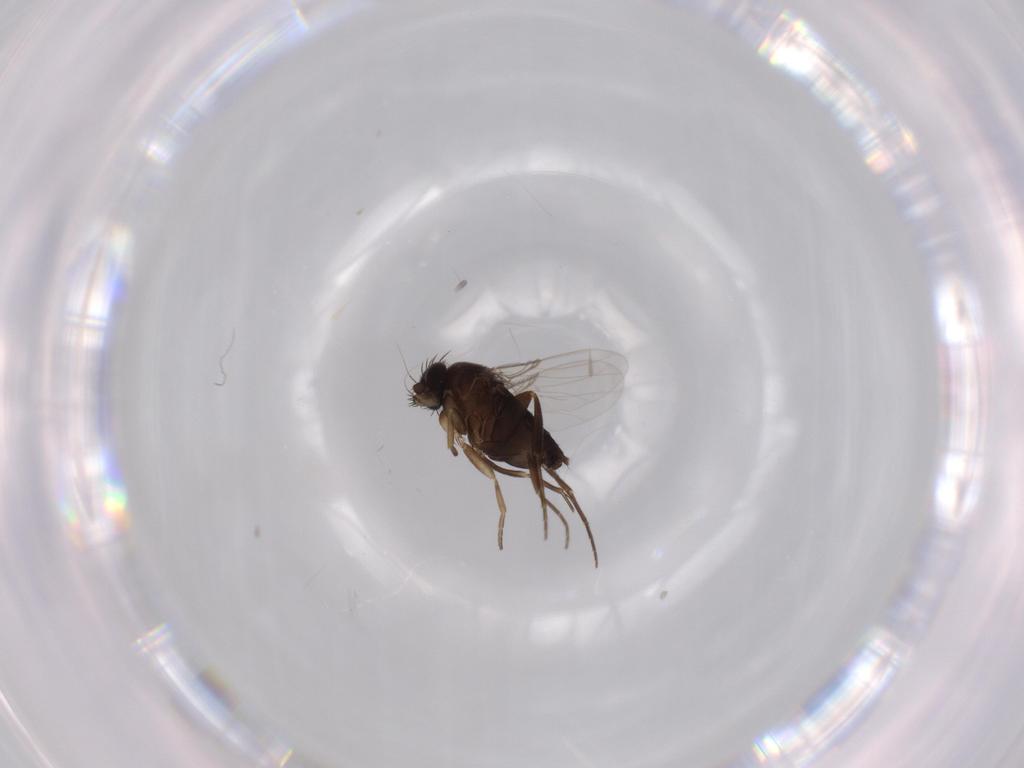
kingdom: Animalia
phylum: Arthropoda
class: Insecta
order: Diptera
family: Phoridae
